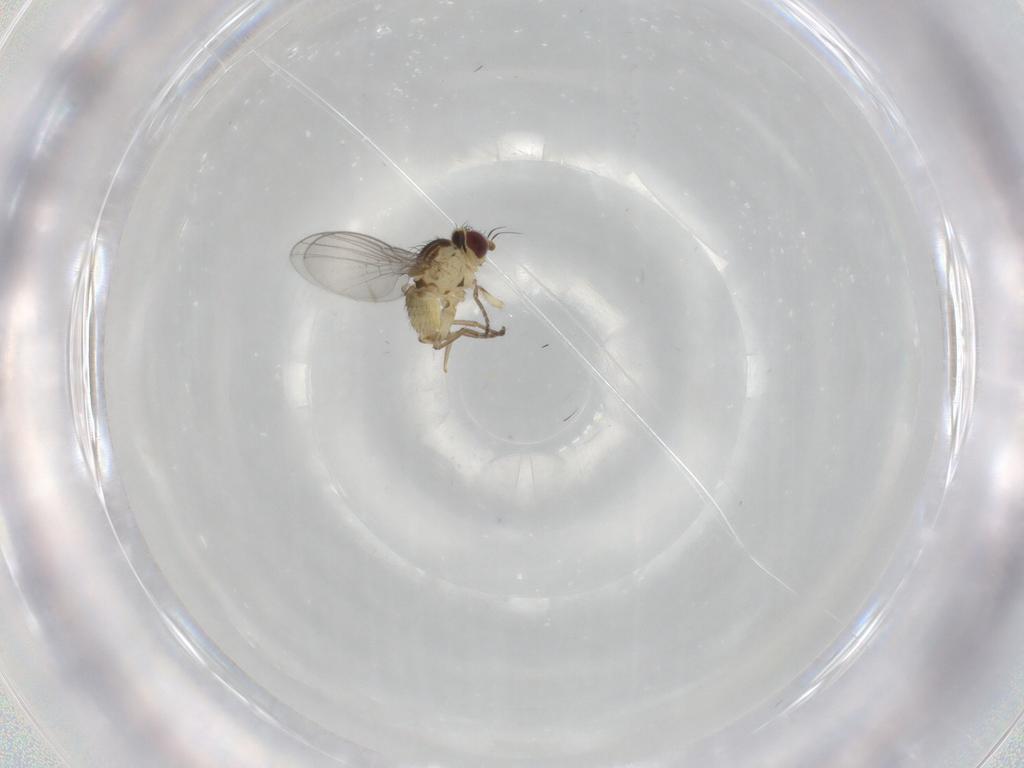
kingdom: Animalia
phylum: Arthropoda
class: Insecta
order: Diptera
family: Agromyzidae
